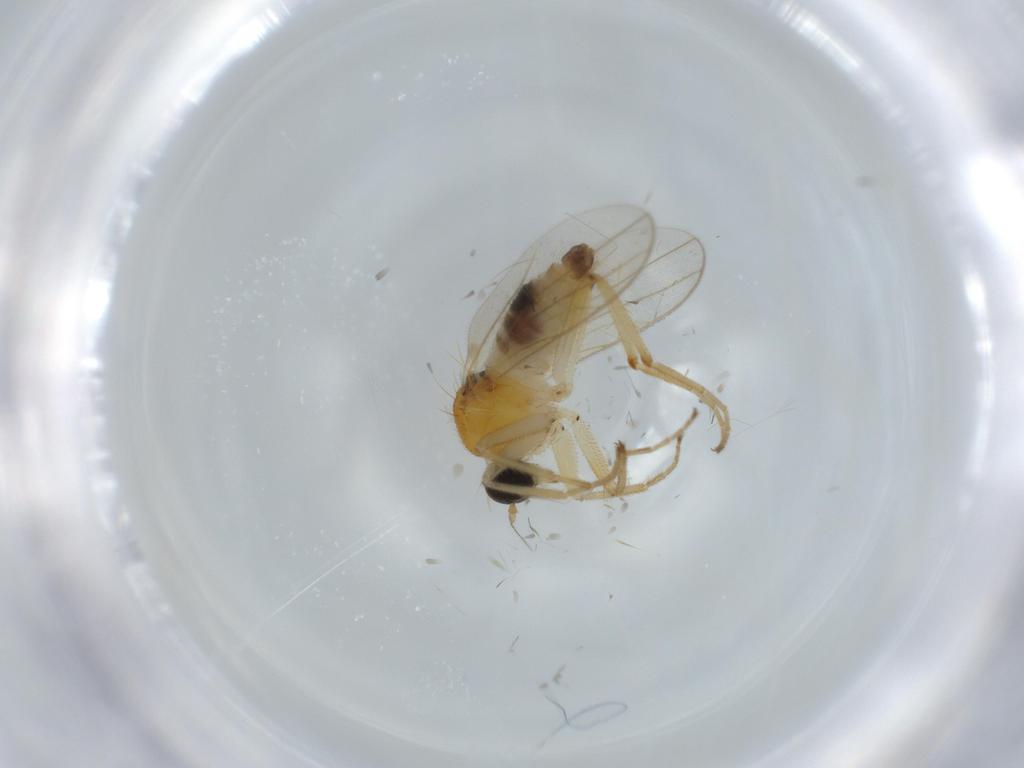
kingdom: Animalia
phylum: Arthropoda
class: Insecta
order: Diptera
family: Hybotidae
